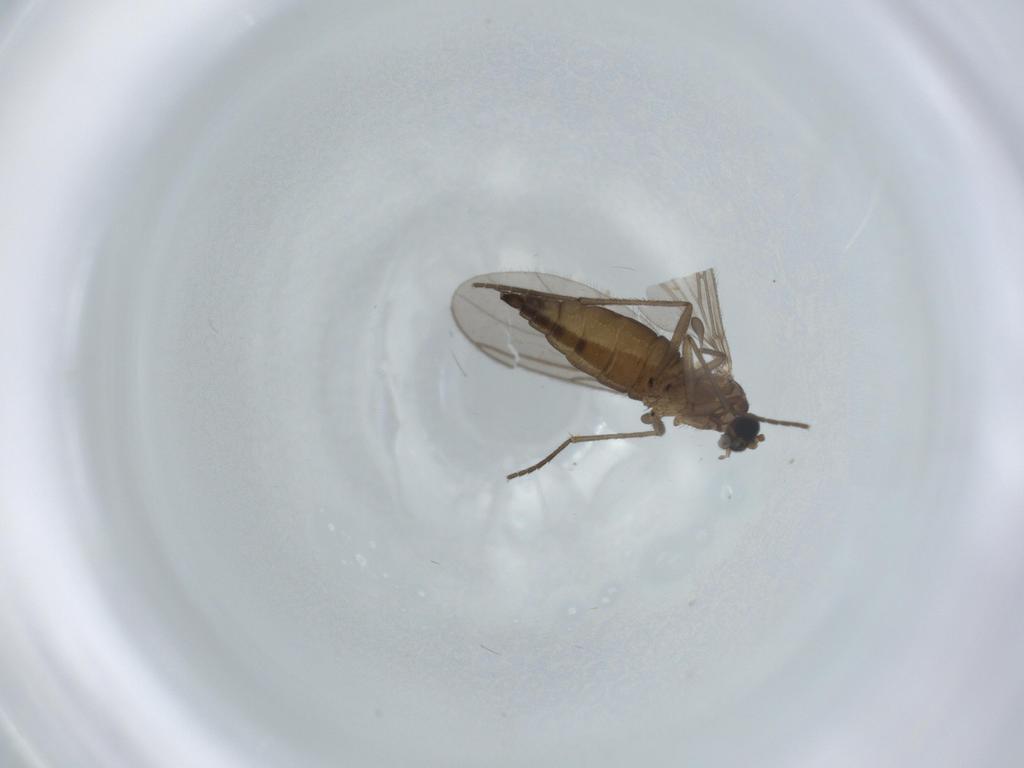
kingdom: Animalia
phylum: Arthropoda
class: Insecta
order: Diptera
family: Sciaridae
